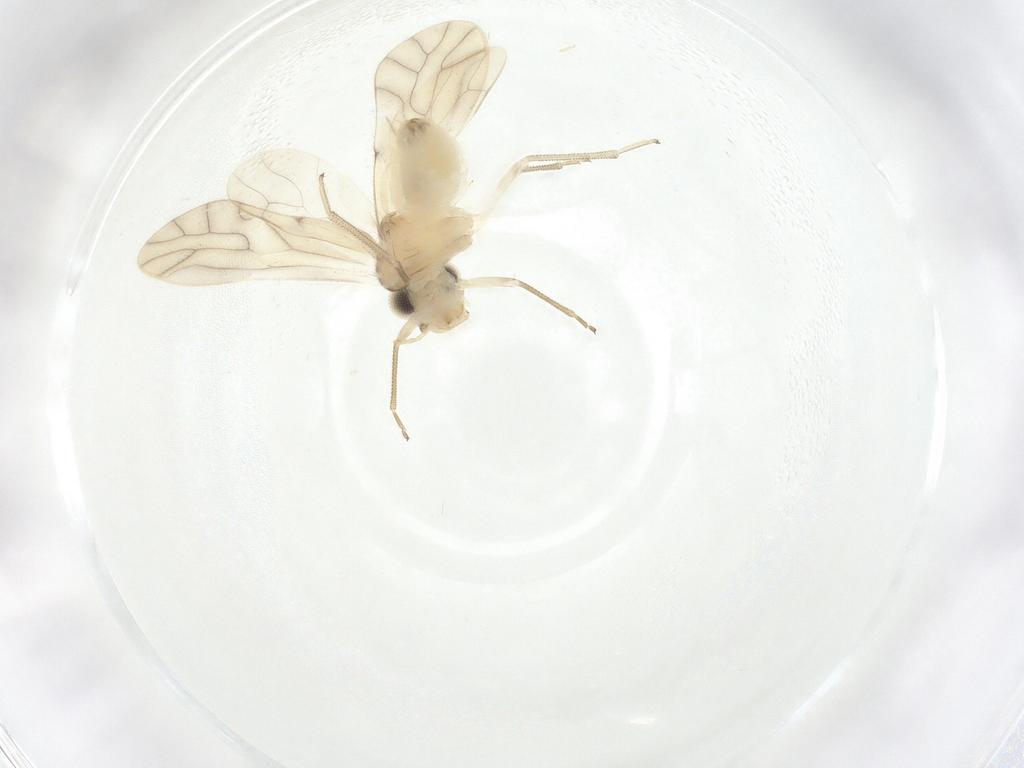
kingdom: Animalia
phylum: Arthropoda
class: Insecta
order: Psocodea
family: Caeciliusidae
